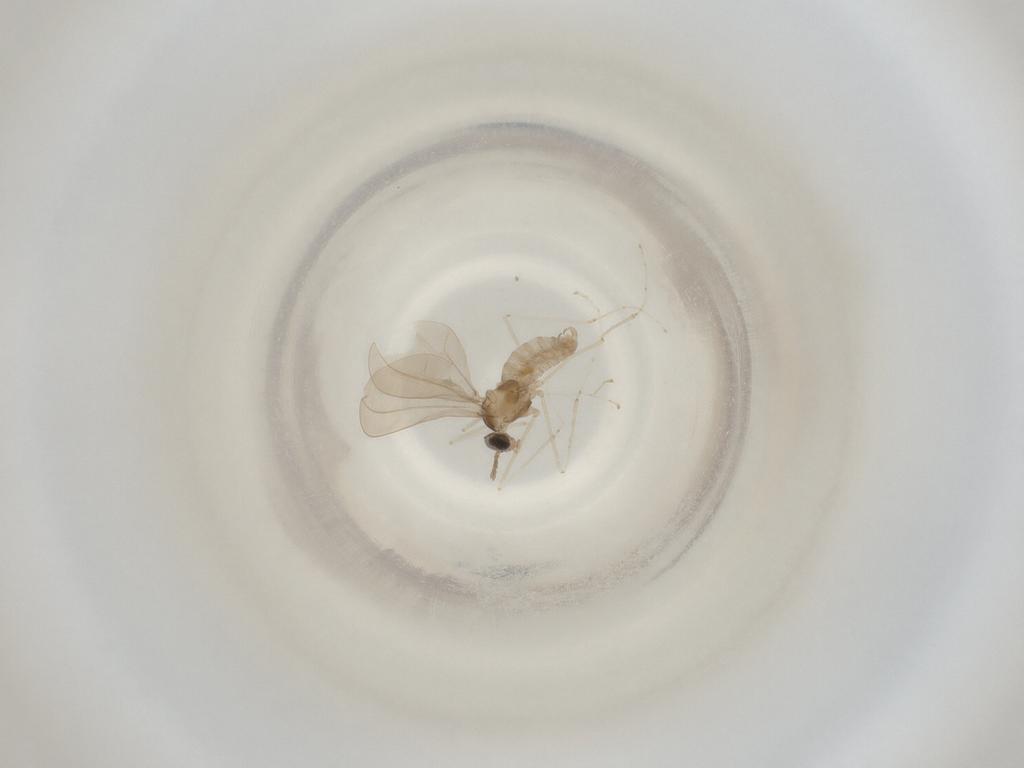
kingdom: Animalia
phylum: Arthropoda
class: Insecta
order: Diptera
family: Cecidomyiidae
